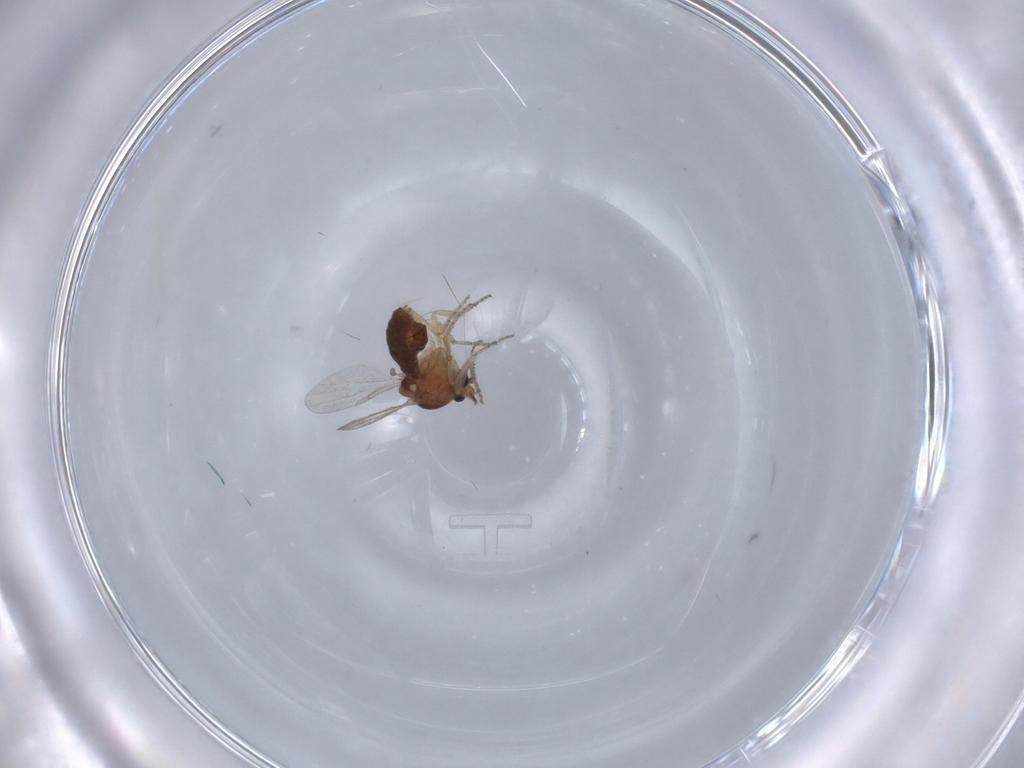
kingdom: Animalia
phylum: Arthropoda
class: Insecta
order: Diptera
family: Ceratopogonidae
